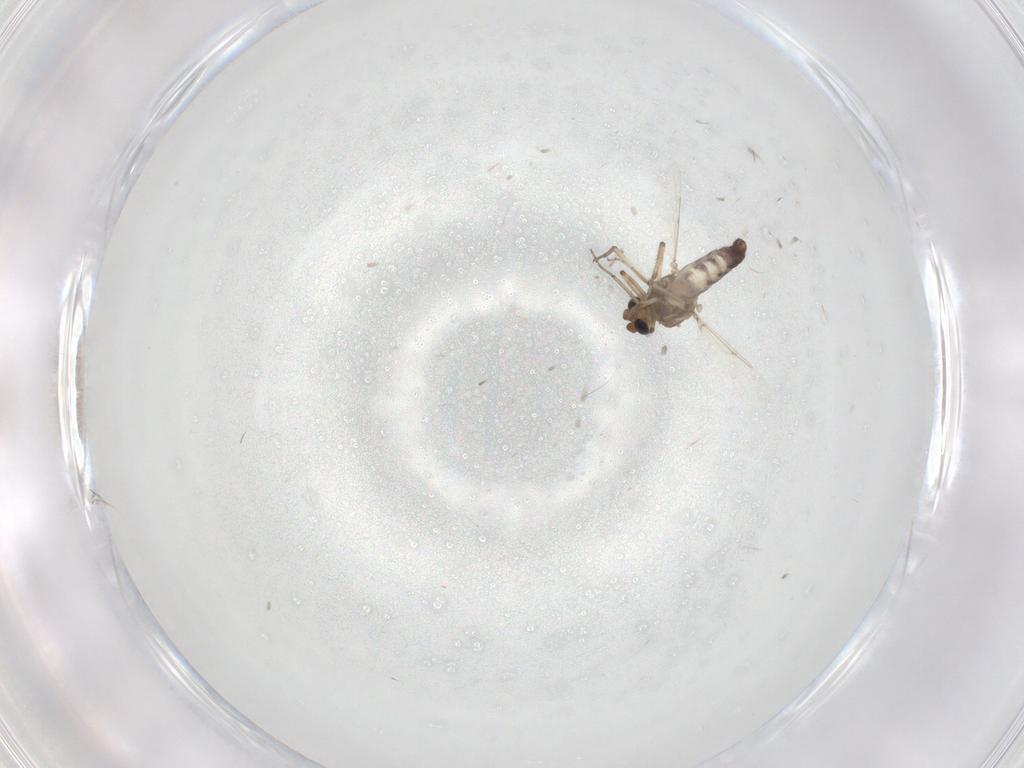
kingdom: Animalia
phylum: Arthropoda
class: Insecta
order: Diptera
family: Ceratopogonidae
